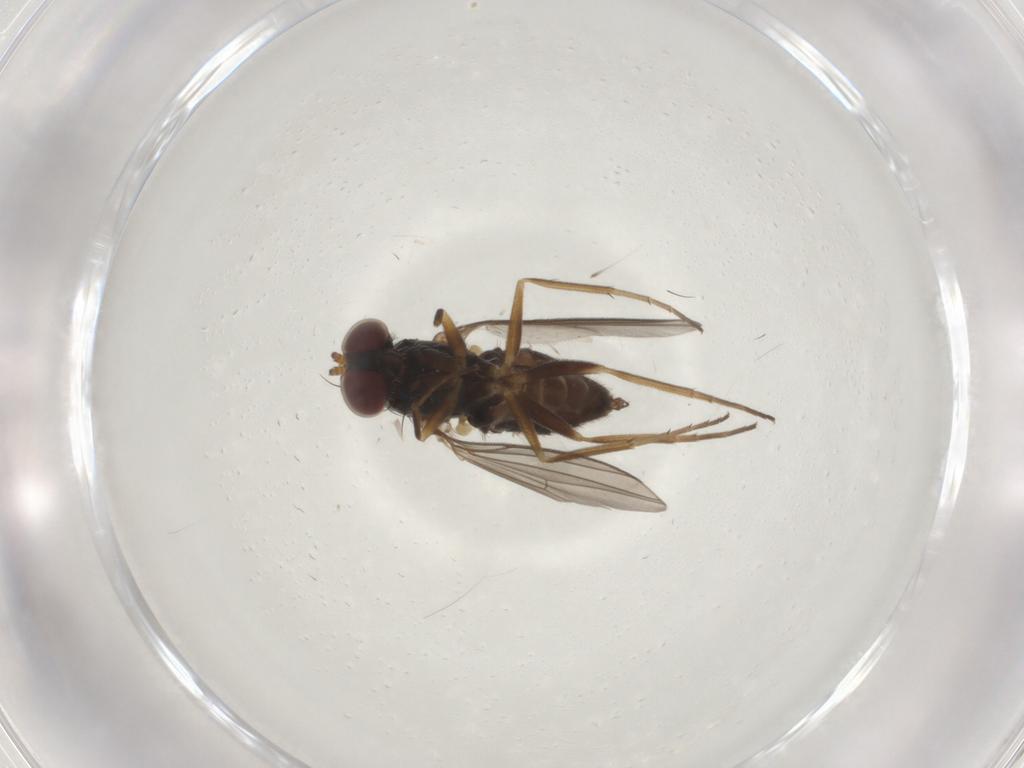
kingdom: Animalia
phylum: Arthropoda
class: Insecta
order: Diptera
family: Dolichopodidae
